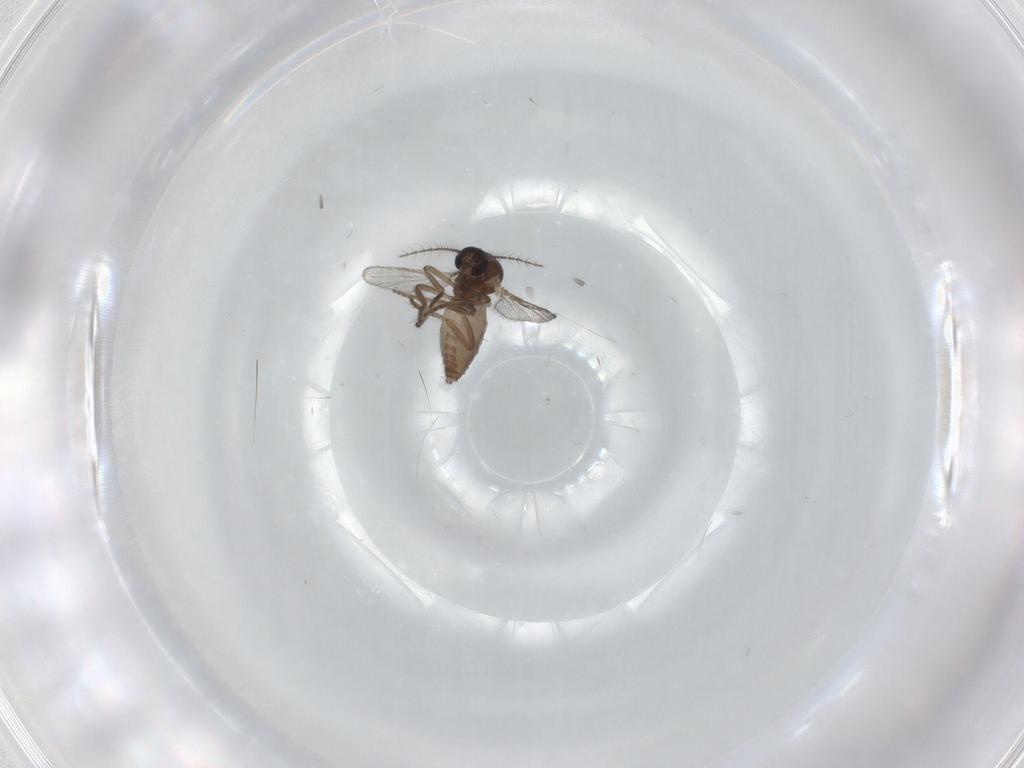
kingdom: Animalia
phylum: Arthropoda
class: Insecta
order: Diptera
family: Ceratopogonidae
